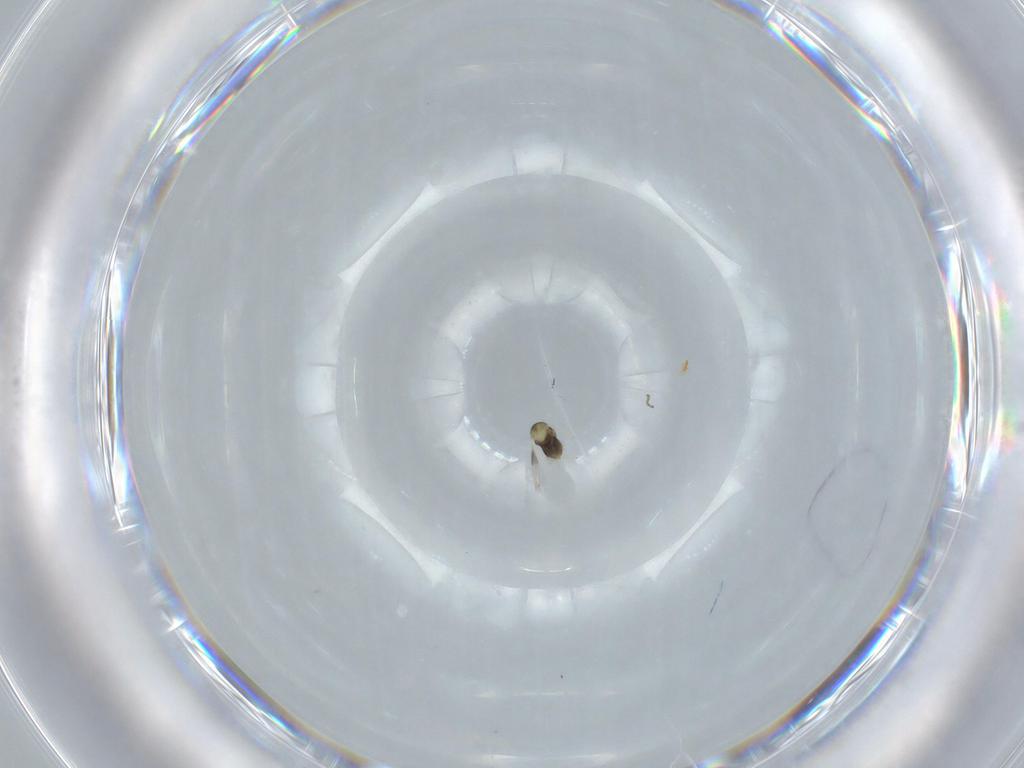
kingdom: Animalia
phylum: Arthropoda
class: Insecta
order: Hymenoptera
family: Aphelinidae
